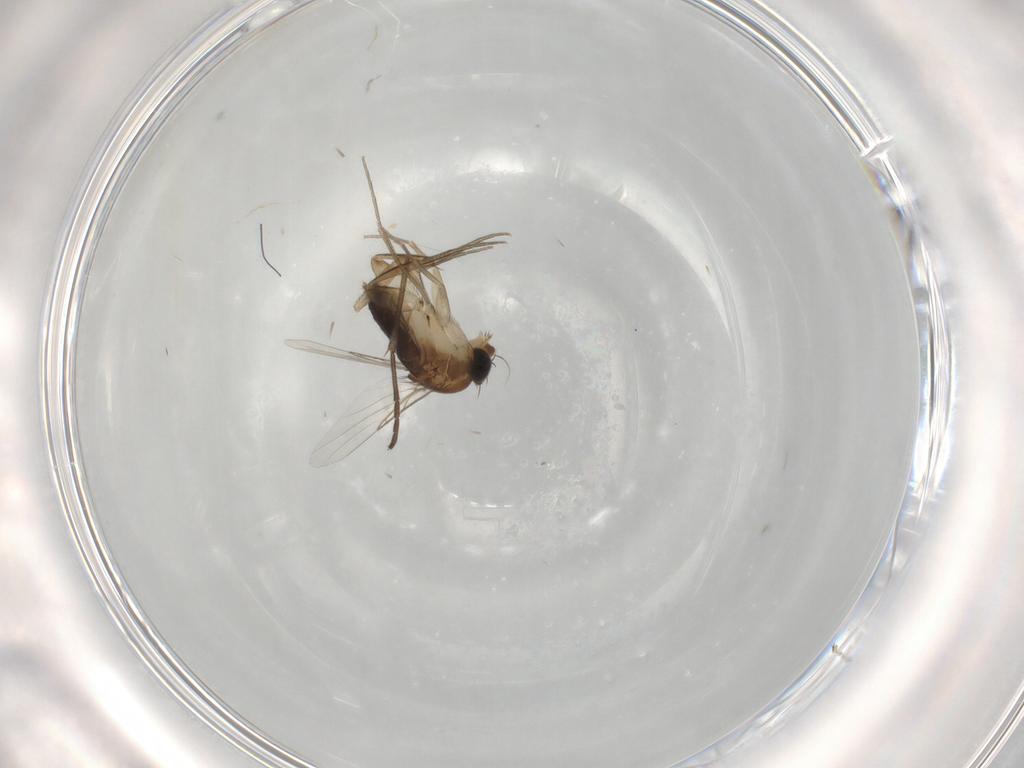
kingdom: Animalia
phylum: Arthropoda
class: Insecta
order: Diptera
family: Cecidomyiidae
